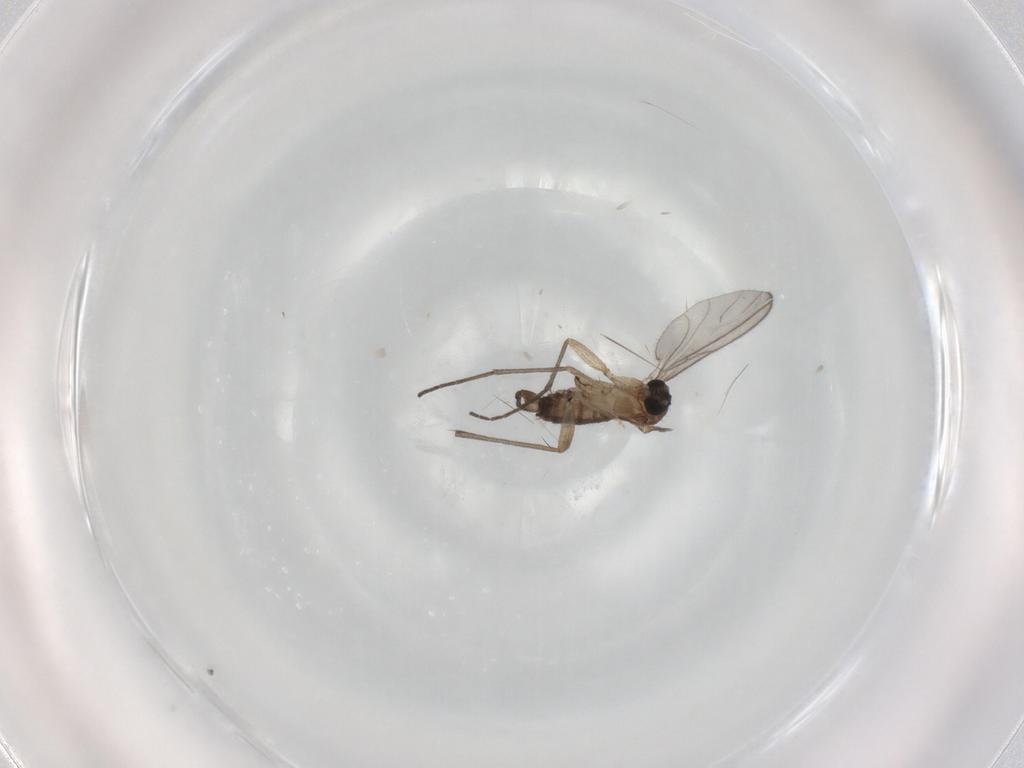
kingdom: Animalia
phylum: Arthropoda
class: Insecta
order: Diptera
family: Sciaridae
